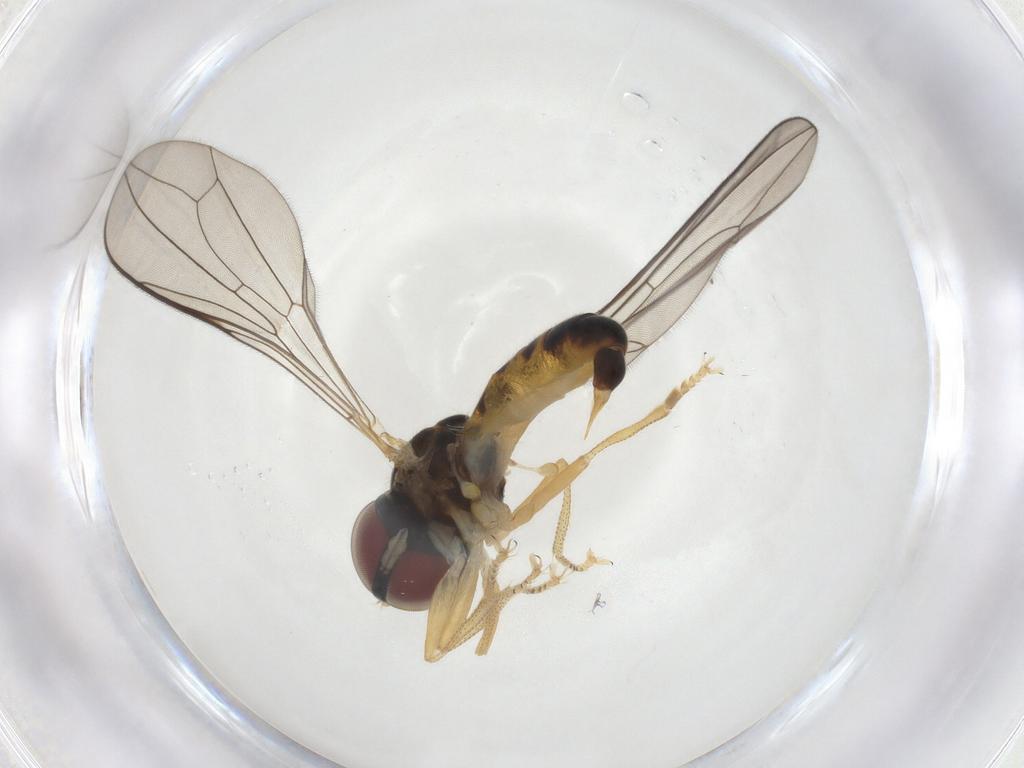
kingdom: Animalia
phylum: Arthropoda
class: Insecta
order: Diptera
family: Pipunculidae
